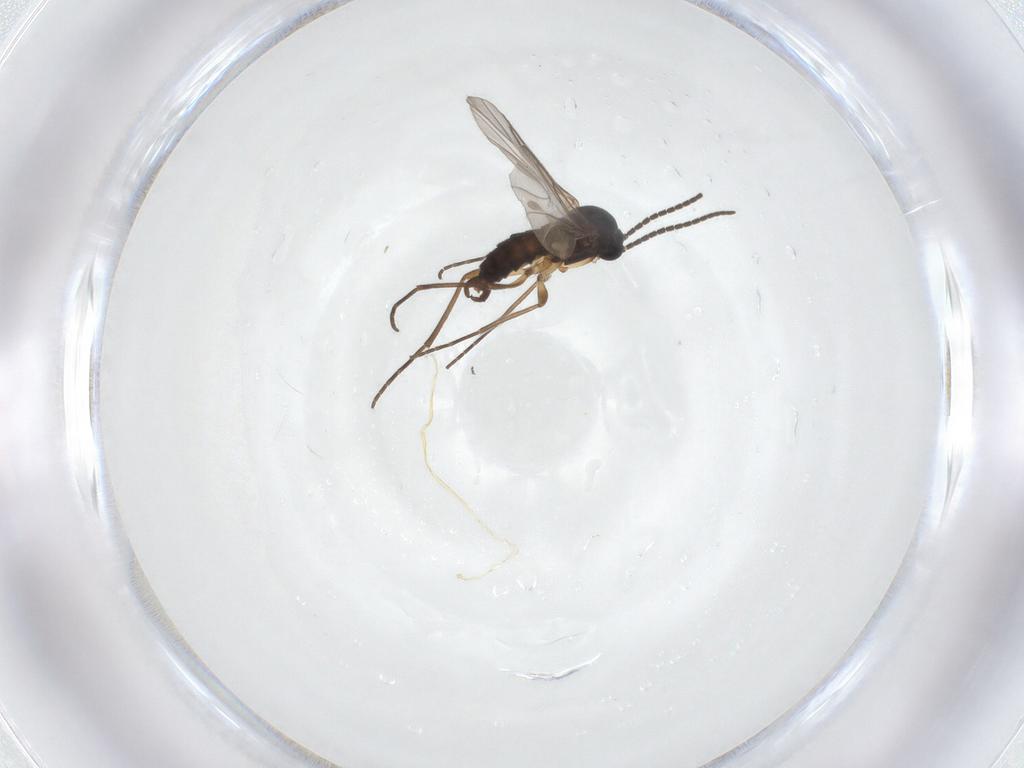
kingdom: Animalia
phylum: Arthropoda
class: Insecta
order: Diptera
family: Sciaridae
